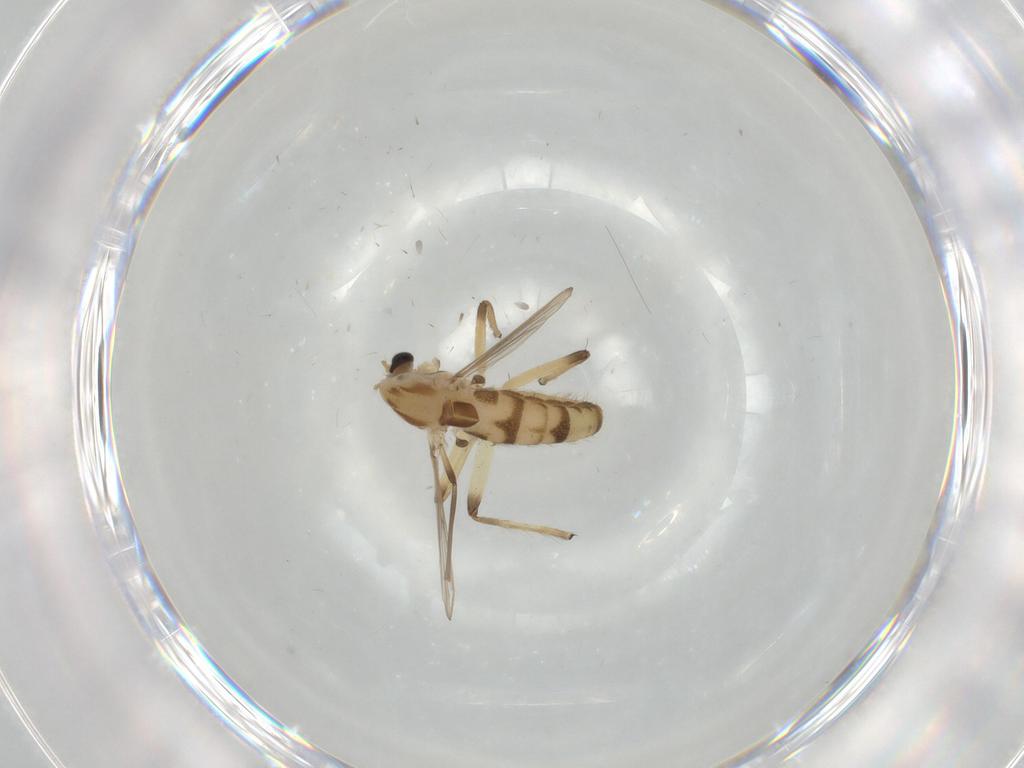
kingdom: Animalia
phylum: Arthropoda
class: Insecta
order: Diptera
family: Chironomidae
